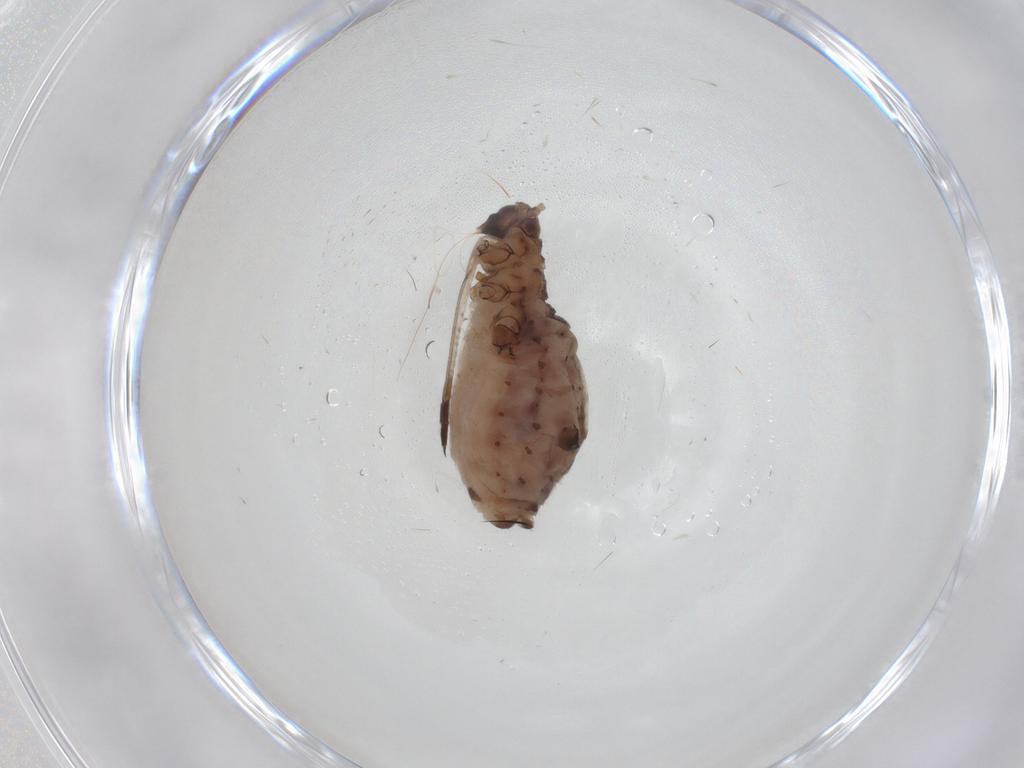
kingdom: Animalia
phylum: Arthropoda
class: Insecta
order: Hemiptera
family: Aphididae
